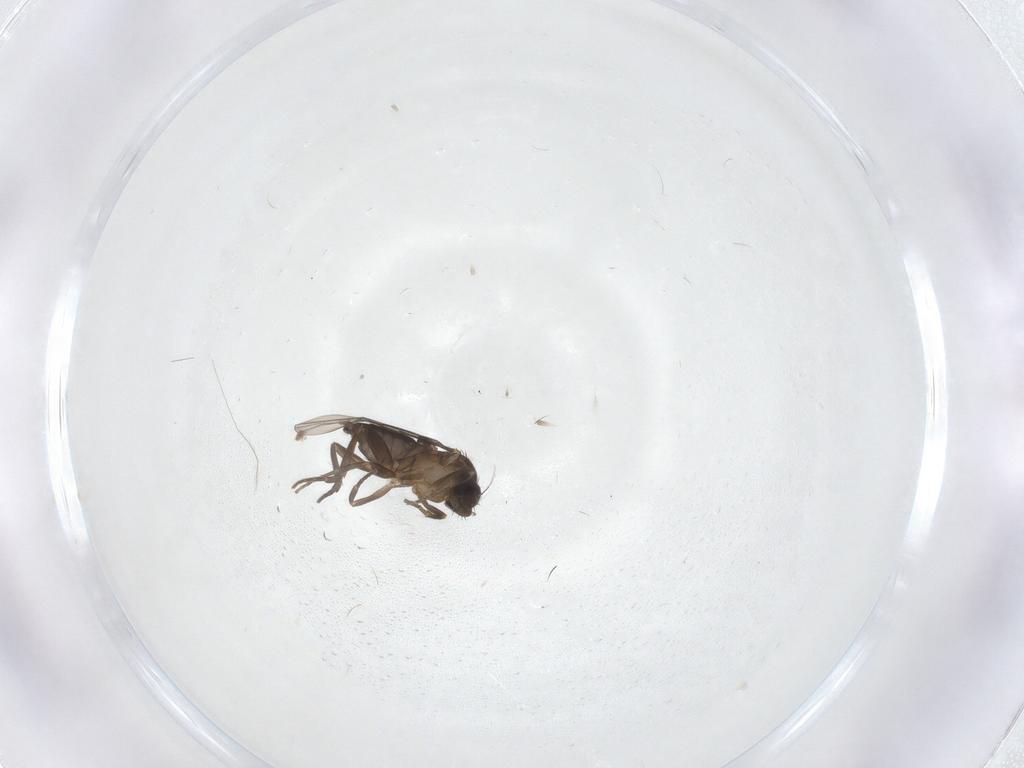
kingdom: Animalia
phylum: Arthropoda
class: Insecta
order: Diptera
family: Phoridae
